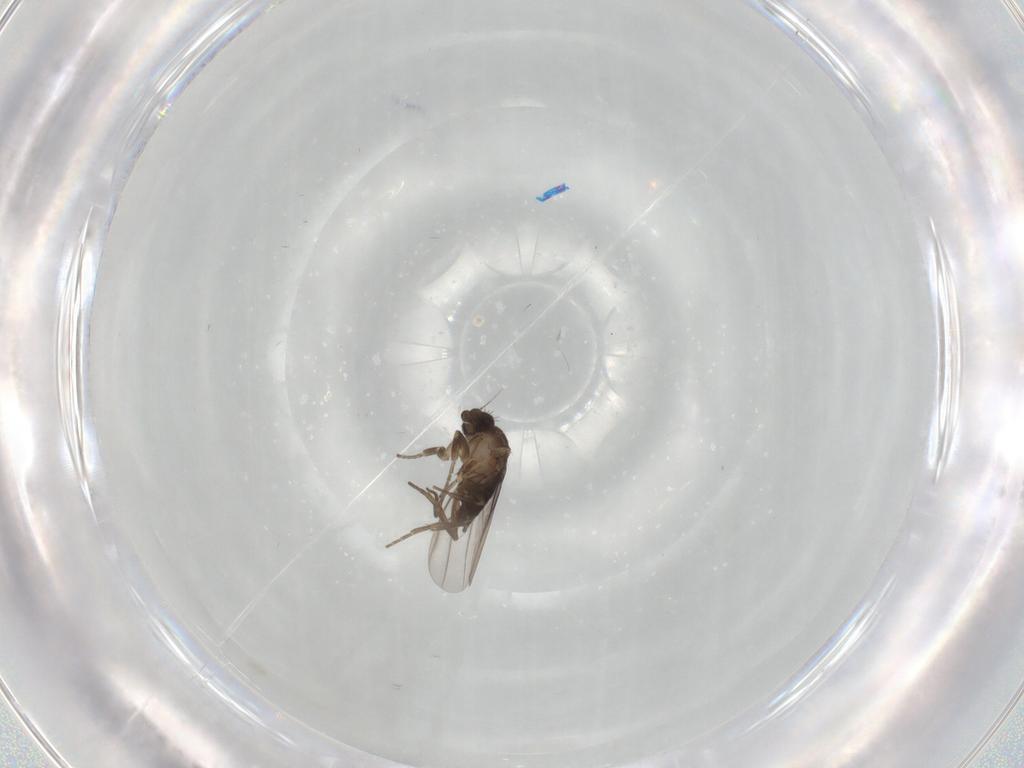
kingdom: Animalia
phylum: Arthropoda
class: Insecta
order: Diptera
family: Phoridae
